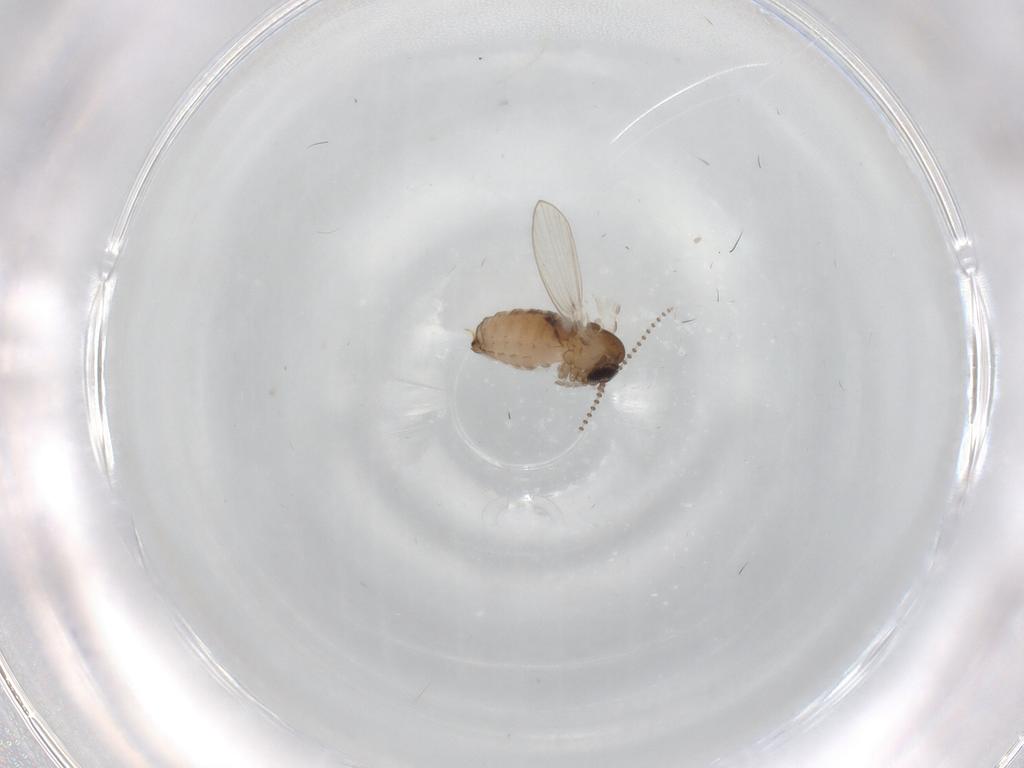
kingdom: Animalia
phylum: Arthropoda
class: Insecta
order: Diptera
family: Psychodidae
